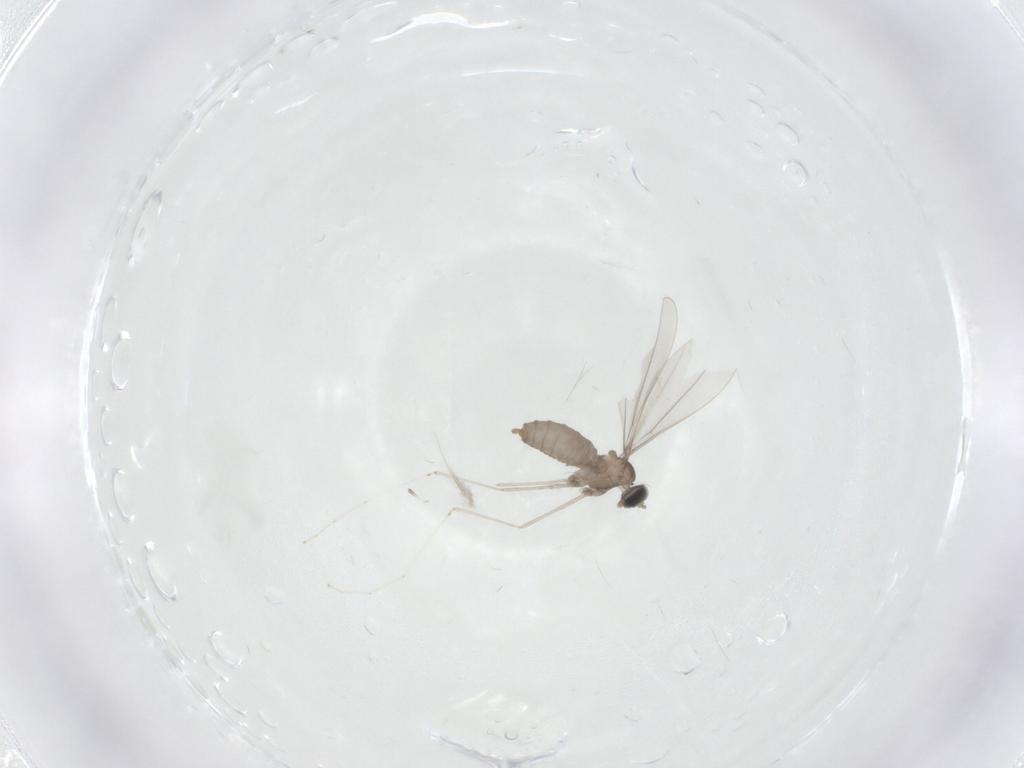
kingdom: Animalia
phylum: Arthropoda
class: Insecta
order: Diptera
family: Cecidomyiidae
